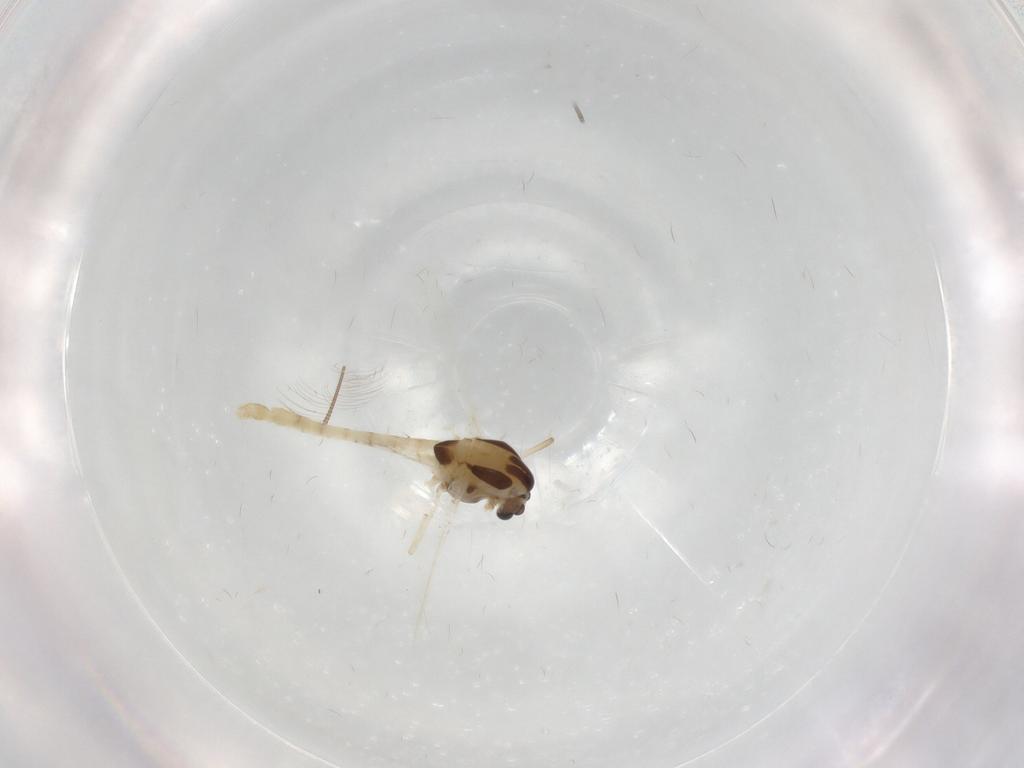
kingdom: Animalia
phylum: Arthropoda
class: Insecta
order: Diptera
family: Chironomidae
